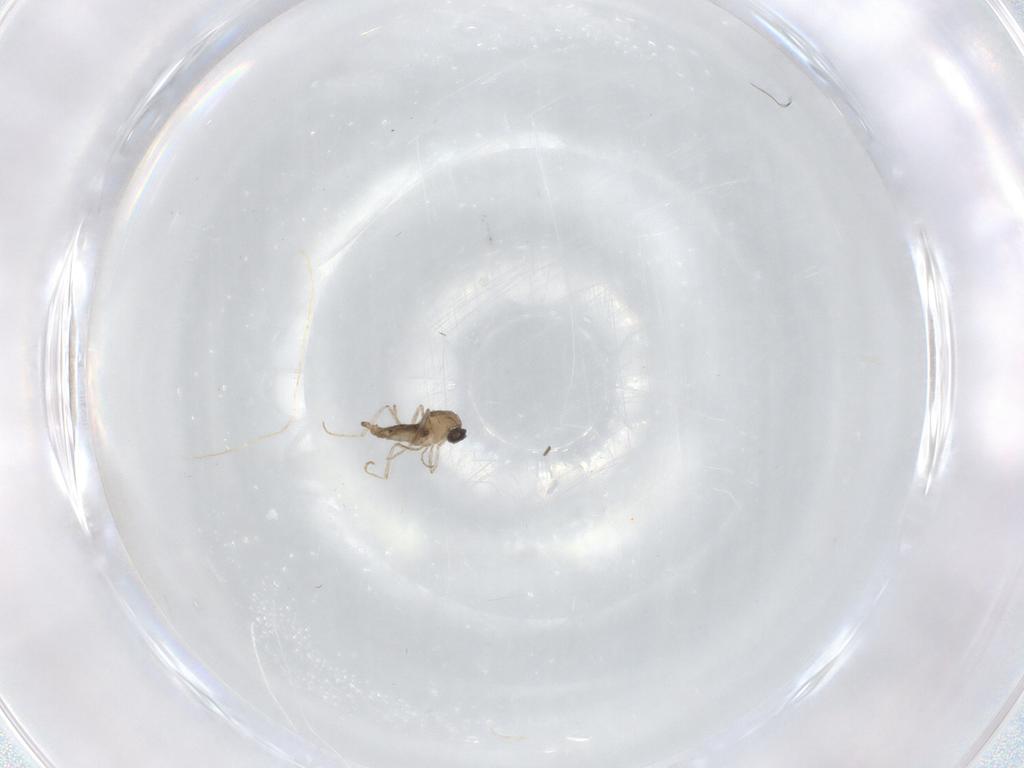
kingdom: Animalia
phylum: Arthropoda
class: Insecta
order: Diptera
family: Cecidomyiidae
